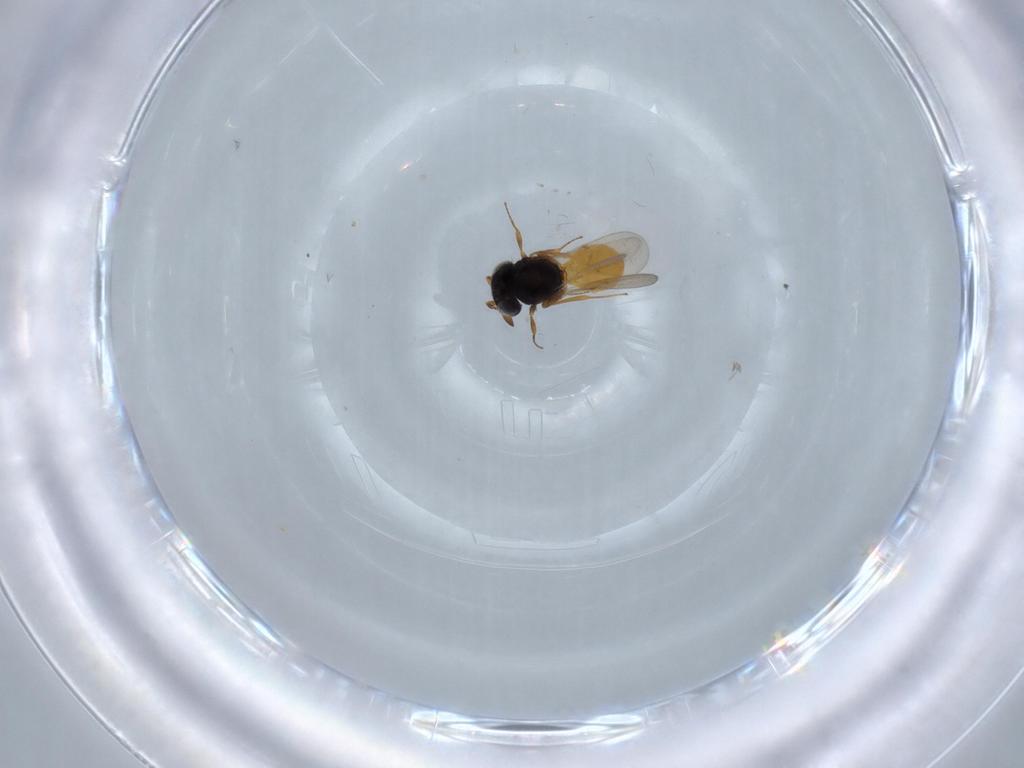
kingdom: Animalia
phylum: Arthropoda
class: Insecta
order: Hymenoptera
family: Scelionidae
